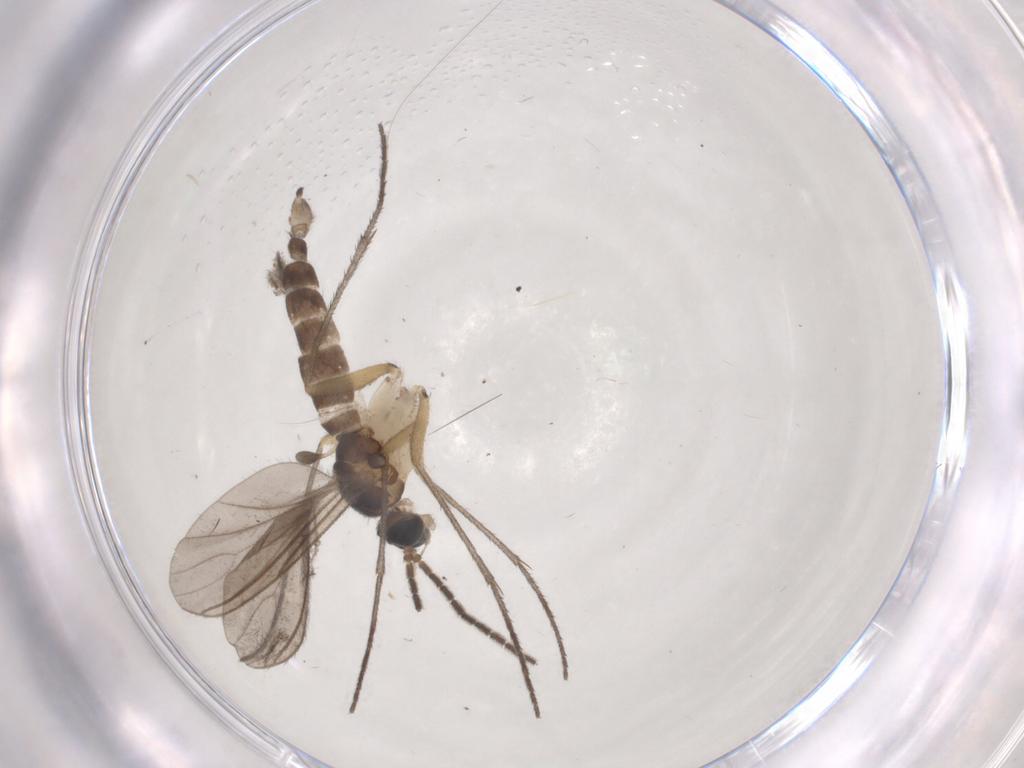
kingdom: Animalia
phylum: Arthropoda
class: Insecta
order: Diptera
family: Sciaridae
